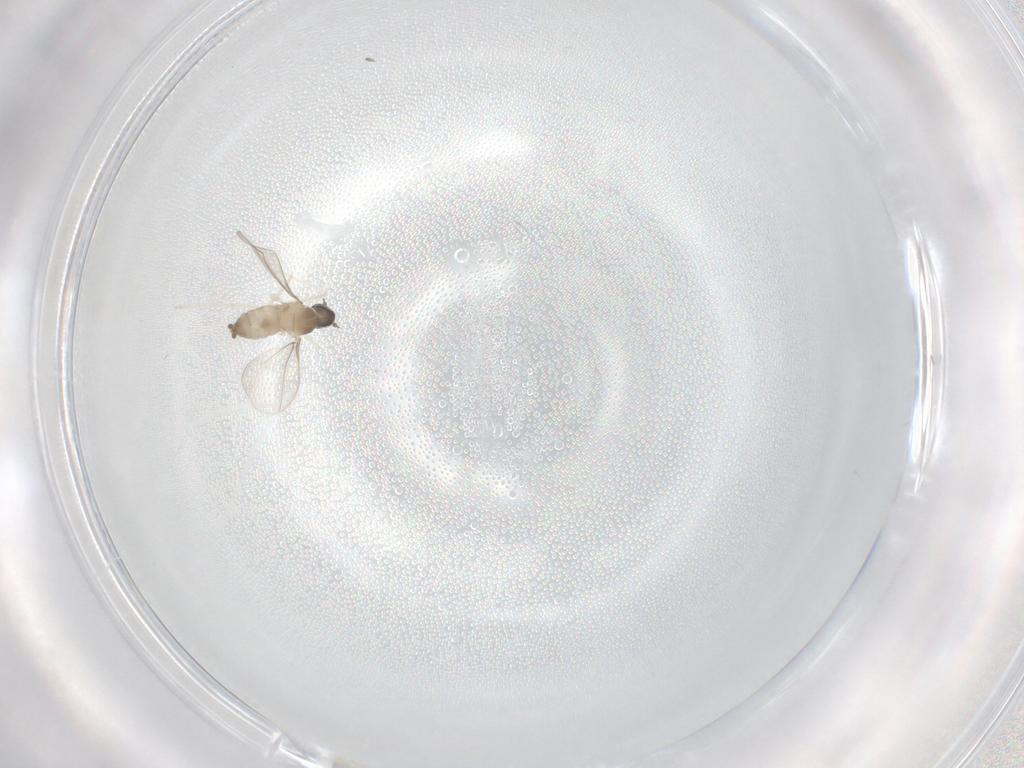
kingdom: Animalia
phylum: Arthropoda
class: Insecta
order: Diptera
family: Cecidomyiidae
